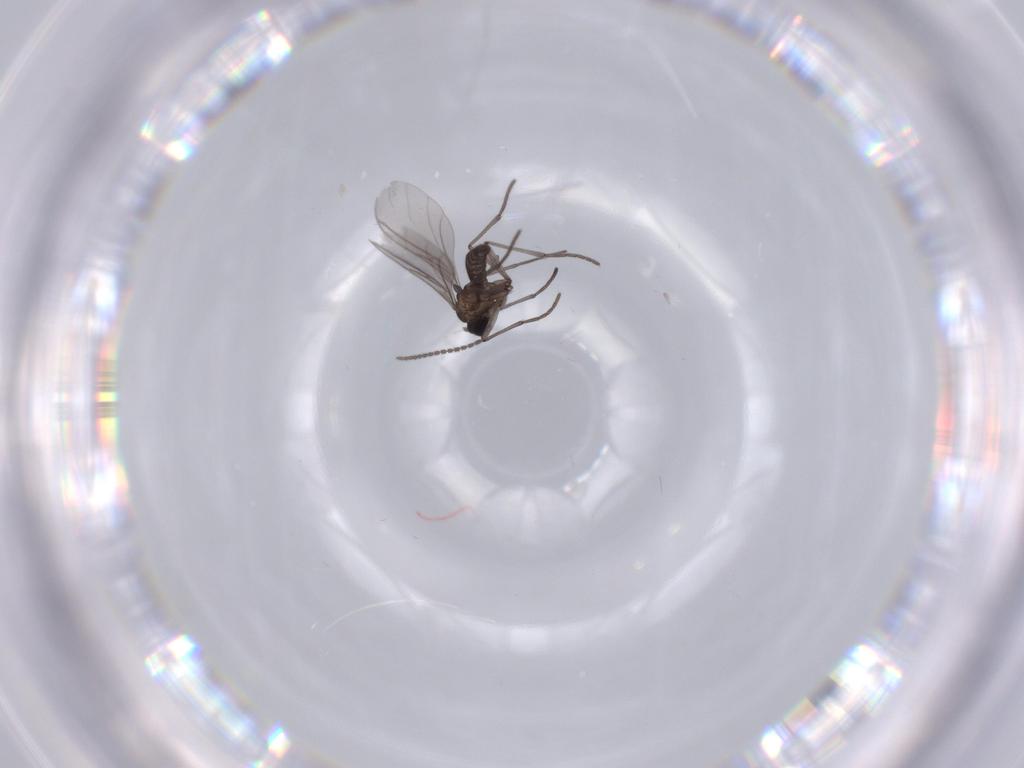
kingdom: Animalia
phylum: Arthropoda
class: Insecta
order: Diptera
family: Sciaridae
